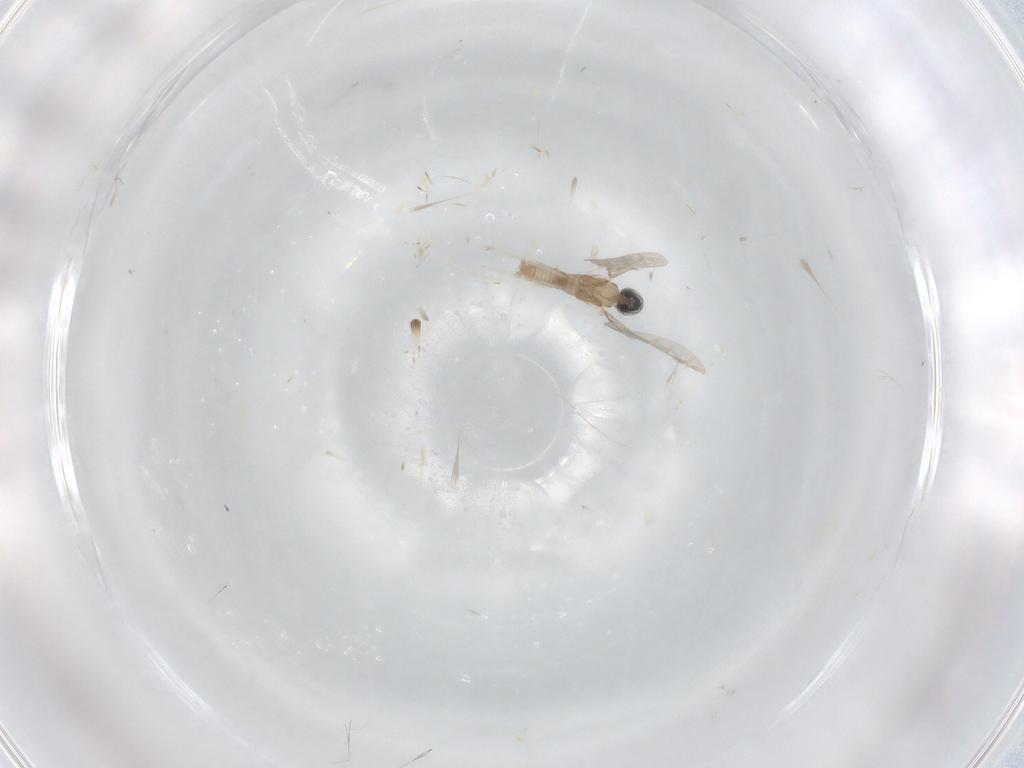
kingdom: Animalia
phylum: Arthropoda
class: Insecta
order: Diptera
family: Cecidomyiidae
